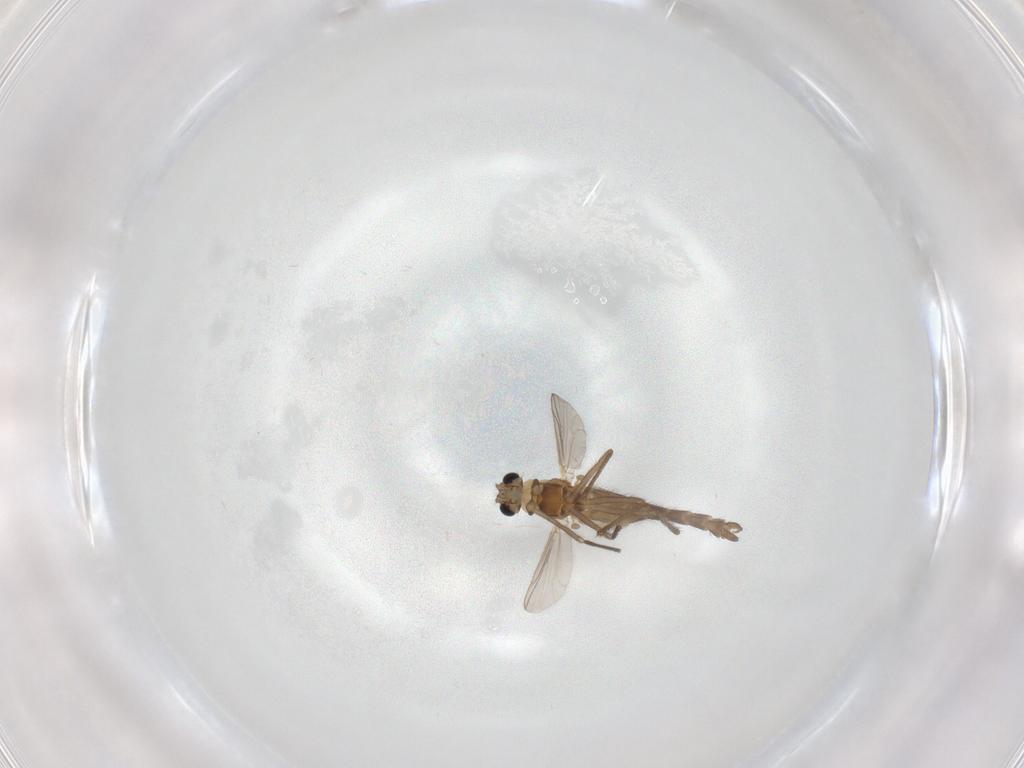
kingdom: Animalia
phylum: Arthropoda
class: Insecta
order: Diptera
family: Chironomidae
